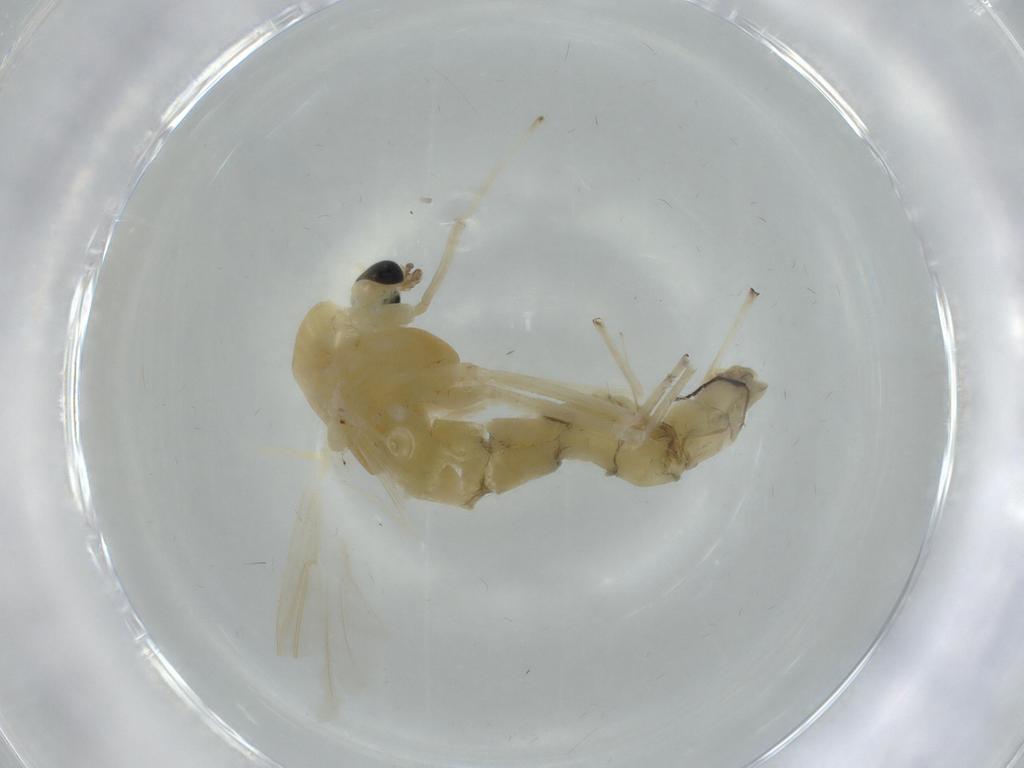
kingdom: Animalia
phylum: Arthropoda
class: Insecta
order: Diptera
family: Chironomidae
